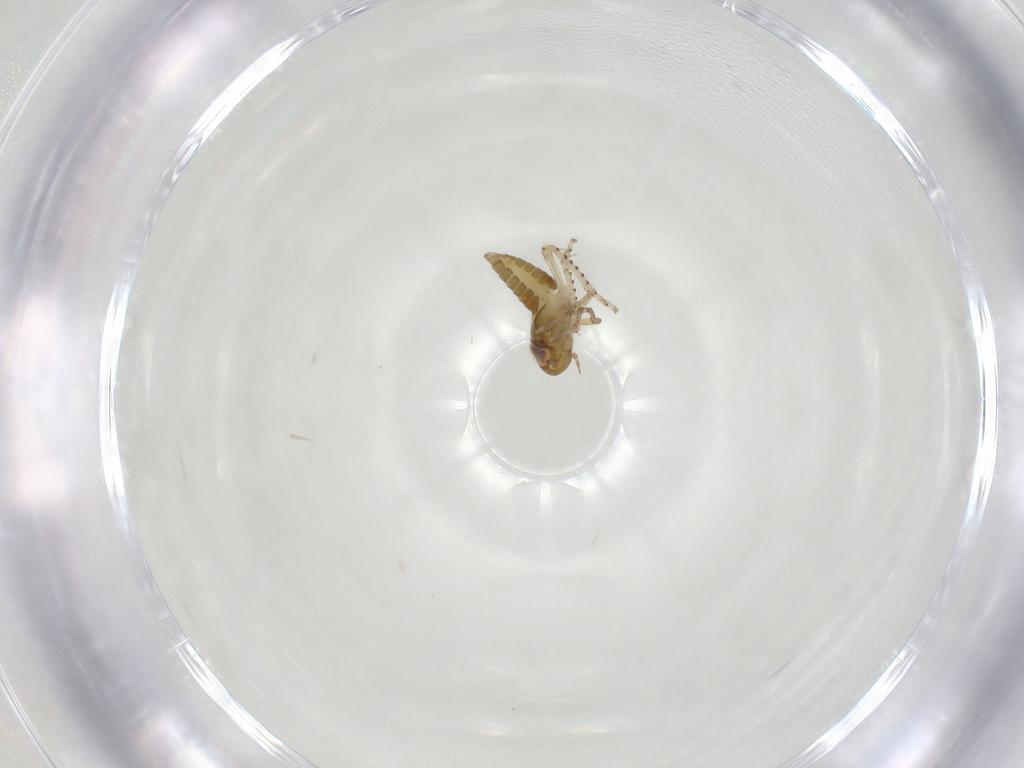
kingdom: Animalia
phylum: Arthropoda
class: Insecta
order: Hemiptera
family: Cicadellidae
